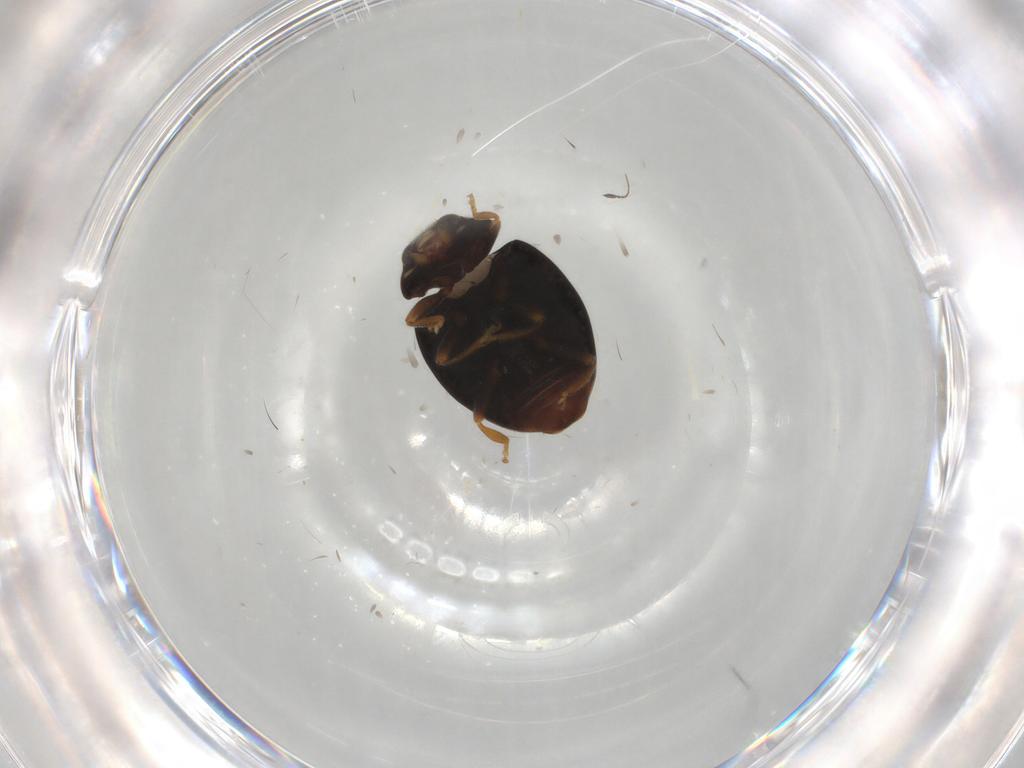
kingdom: Animalia
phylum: Arthropoda
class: Insecta
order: Coleoptera
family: Coccinellidae
